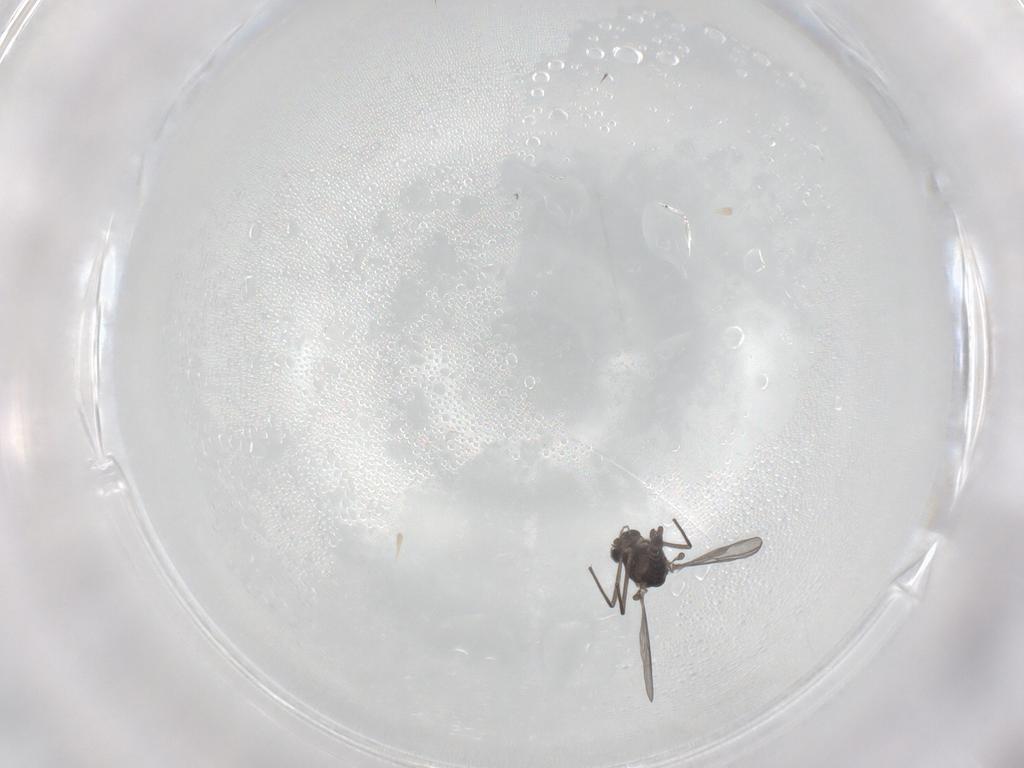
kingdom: Animalia
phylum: Arthropoda
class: Insecta
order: Diptera
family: Chironomidae
